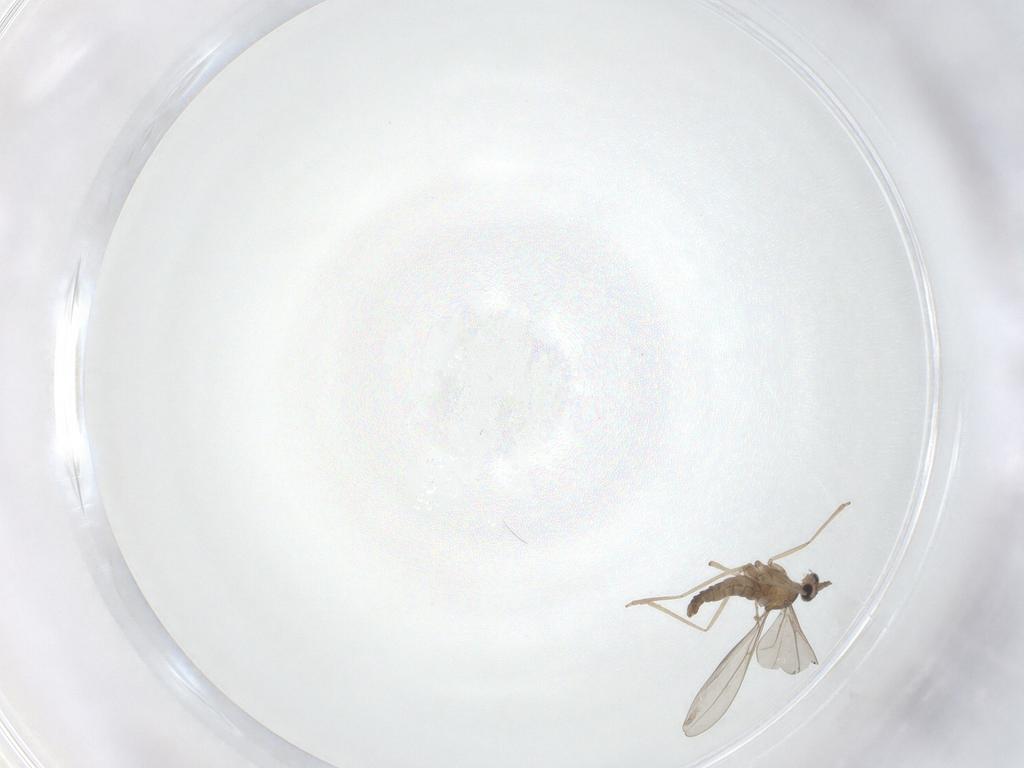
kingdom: Animalia
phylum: Arthropoda
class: Insecta
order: Diptera
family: Cecidomyiidae
